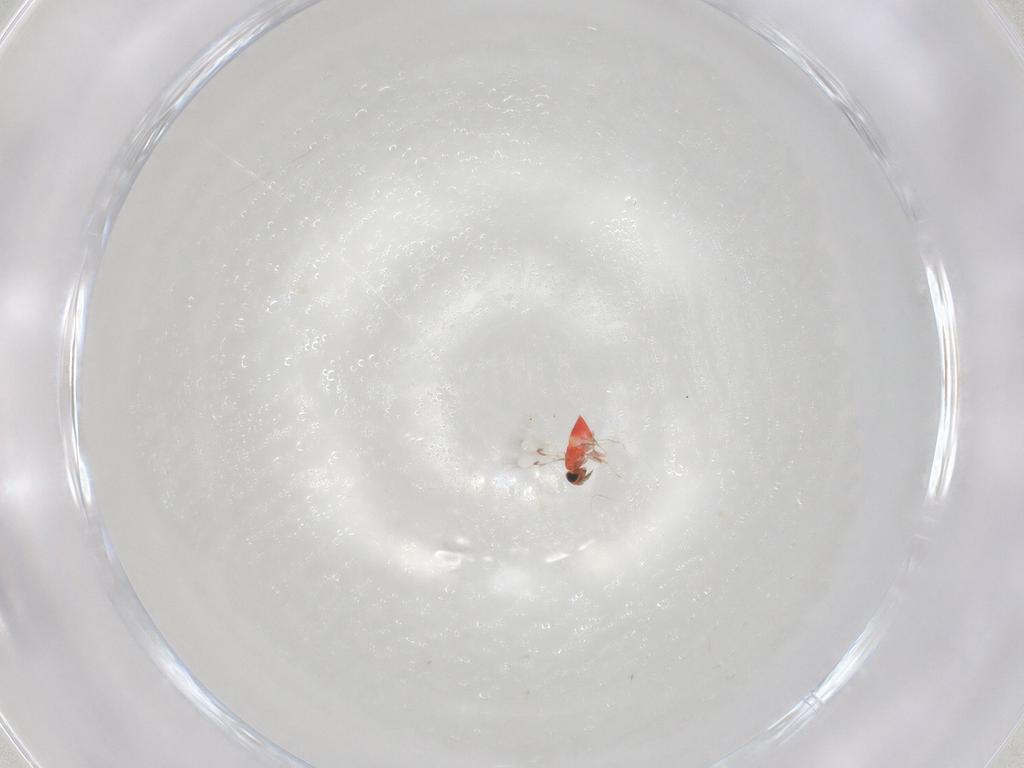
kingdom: Animalia
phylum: Arthropoda
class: Insecta
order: Hymenoptera
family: Trichogrammatidae
